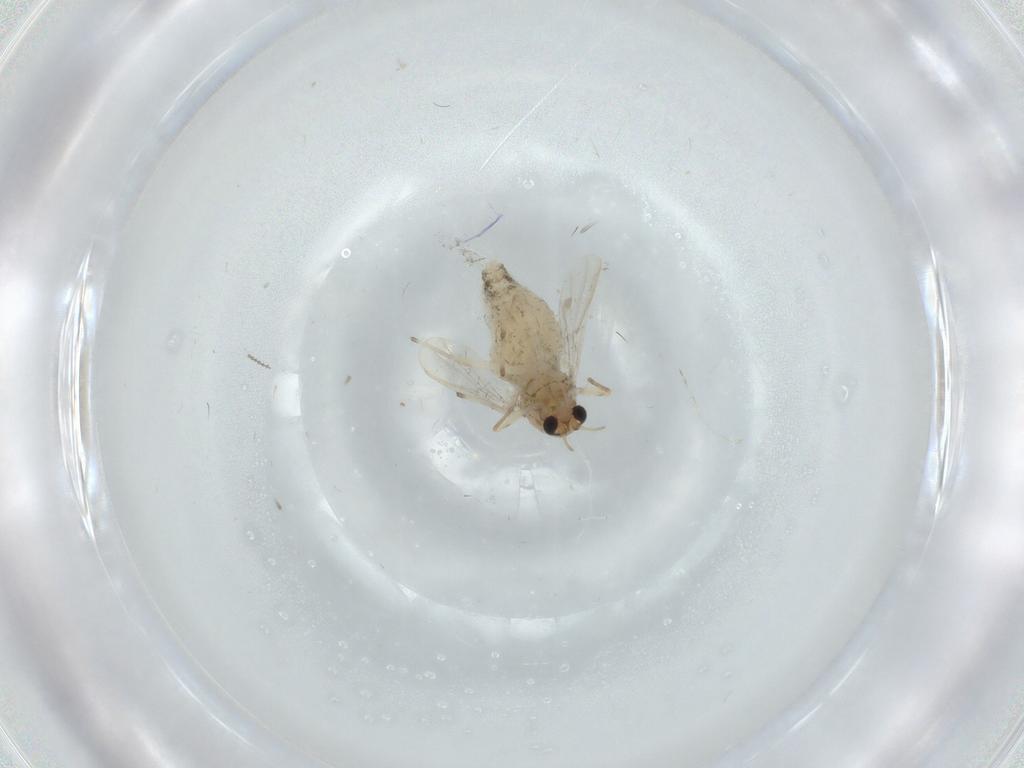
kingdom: Animalia
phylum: Arthropoda
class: Insecta
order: Diptera
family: Chironomidae
